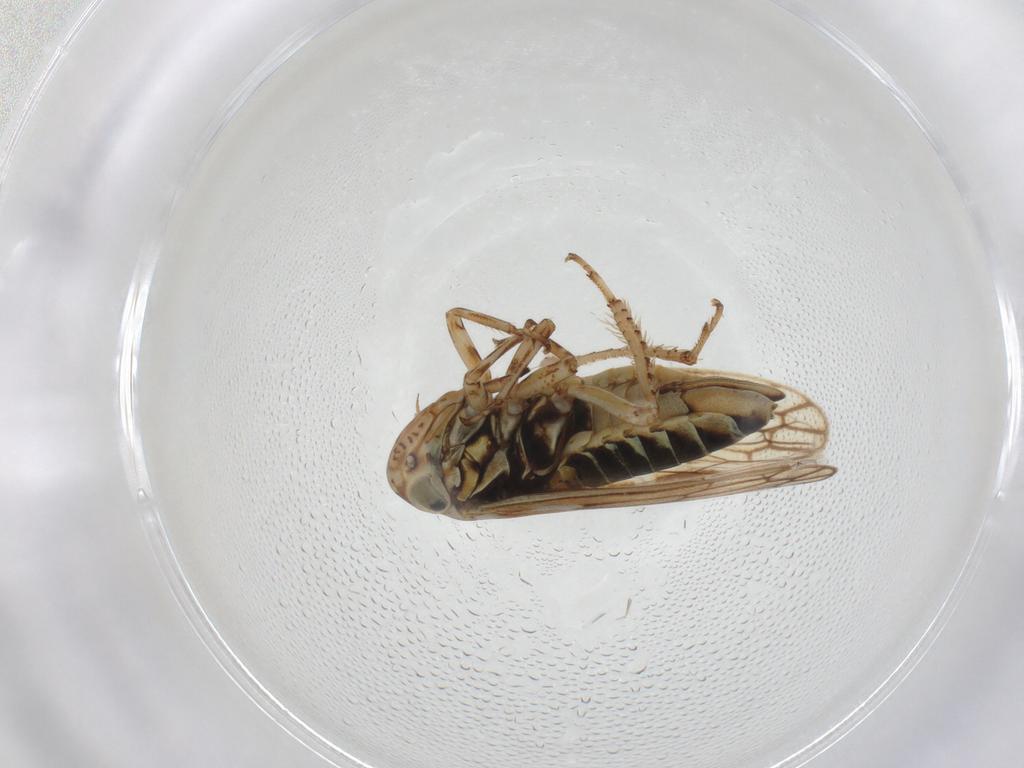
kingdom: Animalia
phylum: Arthropoda
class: Insecta
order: Hemiptera
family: Cicadellidae
